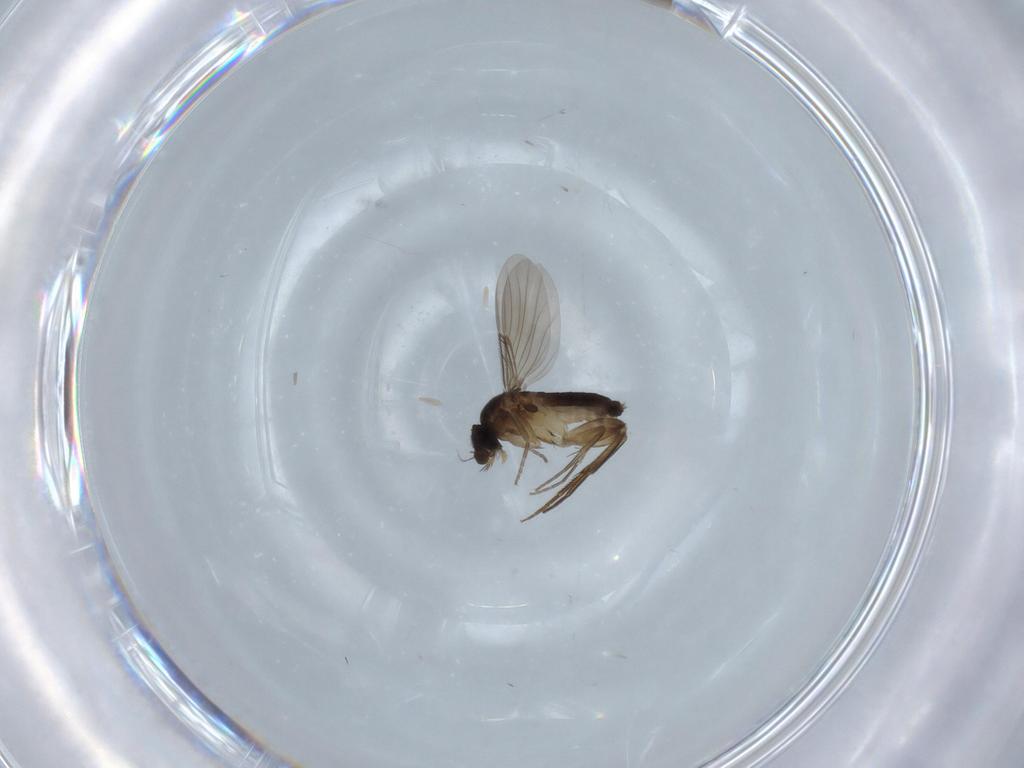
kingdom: Animalia
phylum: Arthropoda
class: Insecta
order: Diptera
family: Phoridae
